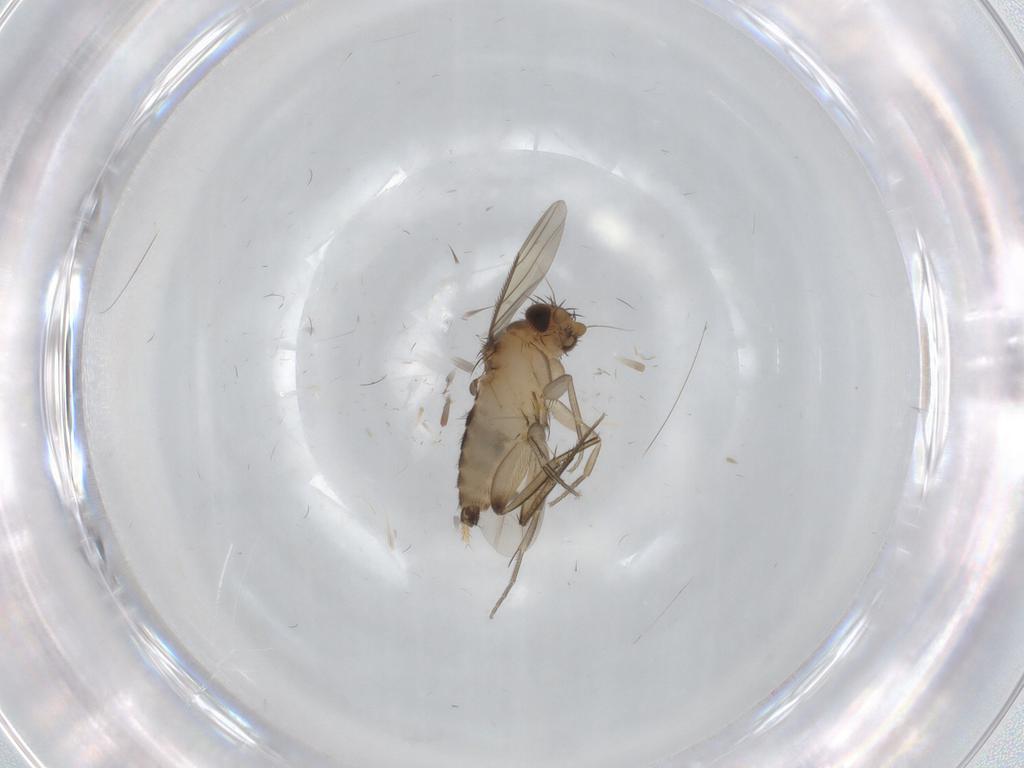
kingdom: Animalia
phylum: Arthropoda
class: Insecta
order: Diptera
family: Phoridae
